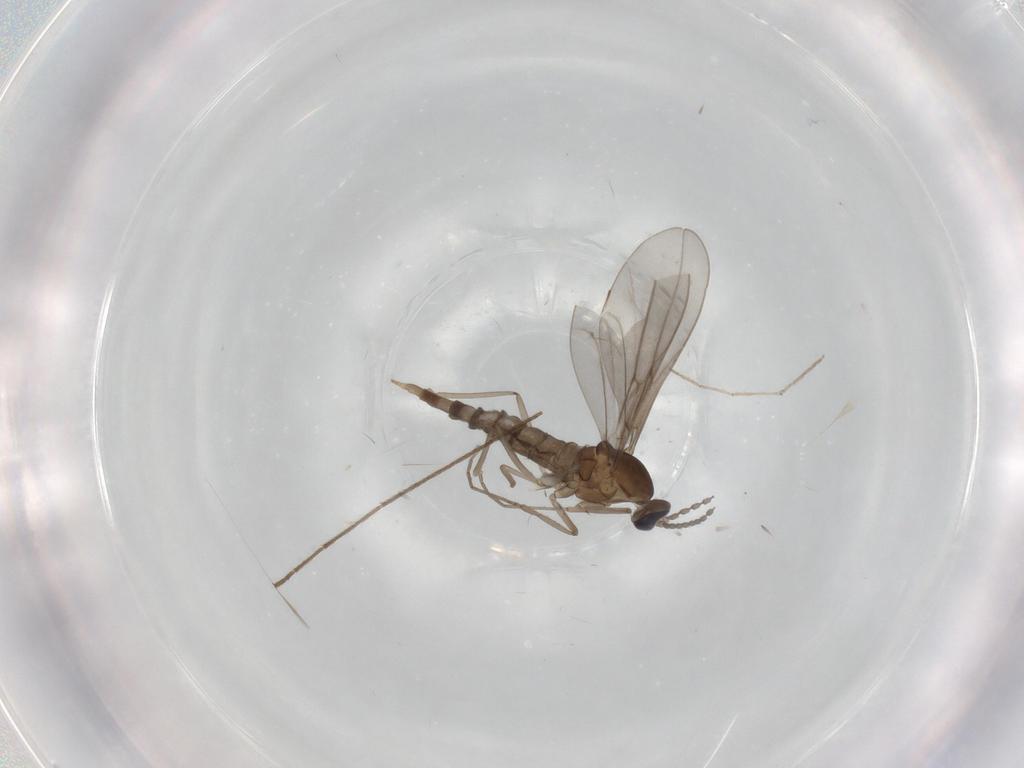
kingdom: Animalia
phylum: Arthropoda
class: Insecta
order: Diptera
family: Cecidomyiidae
